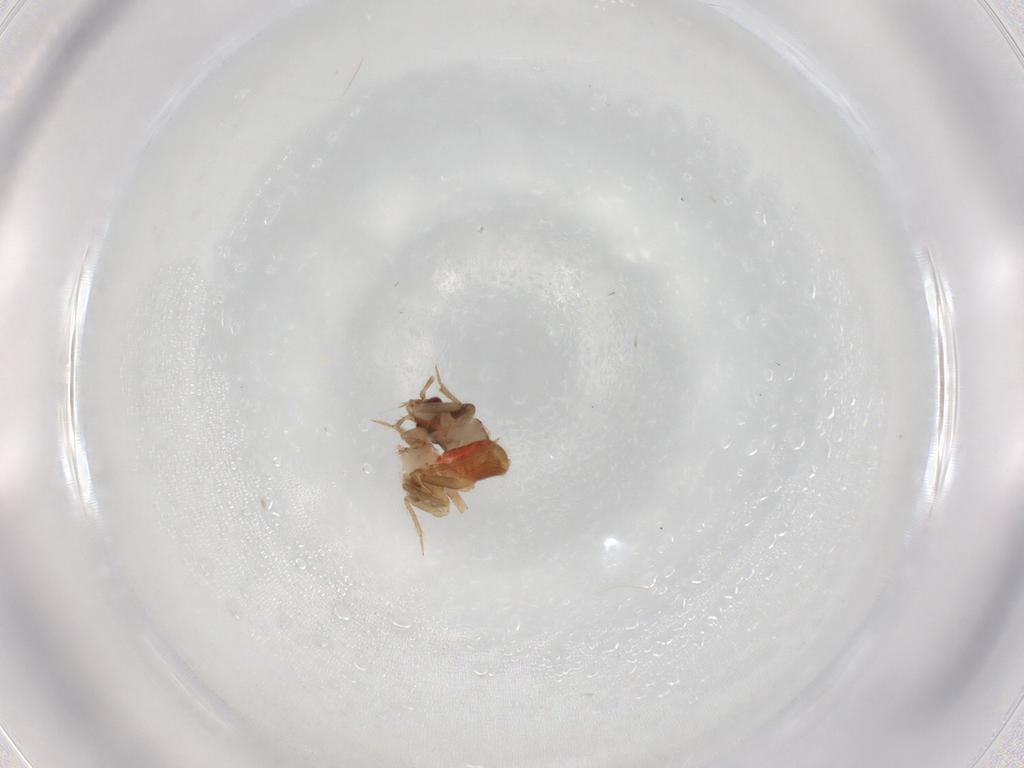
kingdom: Animalia
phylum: Arthropoda
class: Insecta
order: Hemiptera
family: Ceratocombidae
